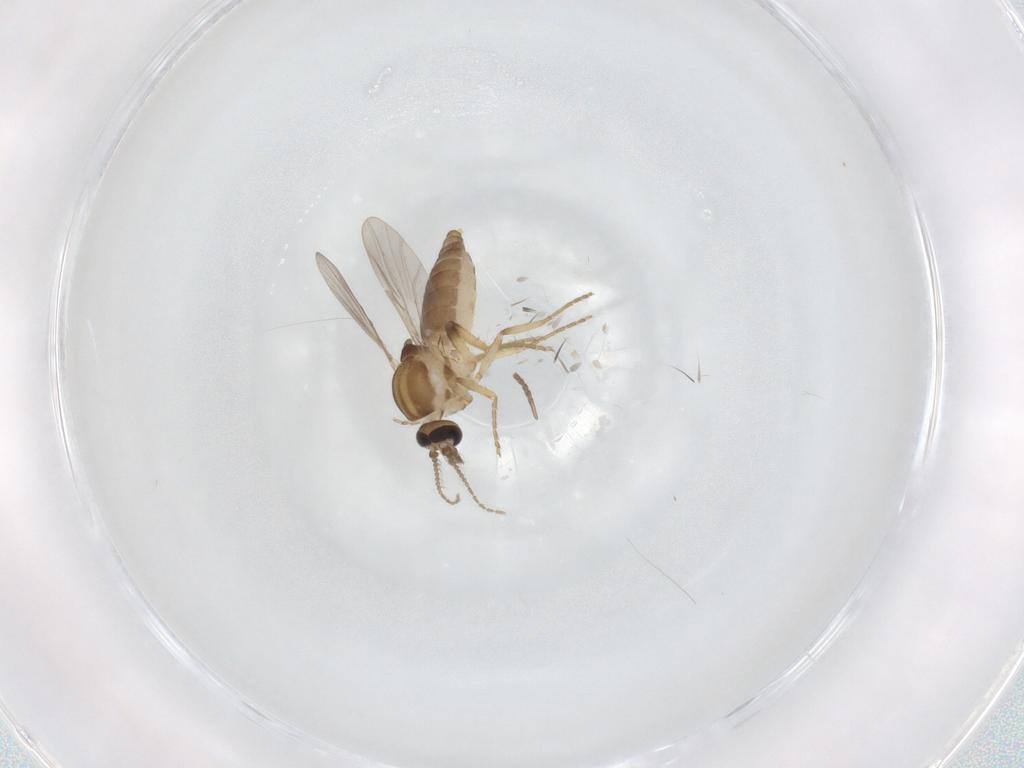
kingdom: Animalia
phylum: Arthropoda
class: Insecta
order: Diptera
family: Ceratopogonidae
